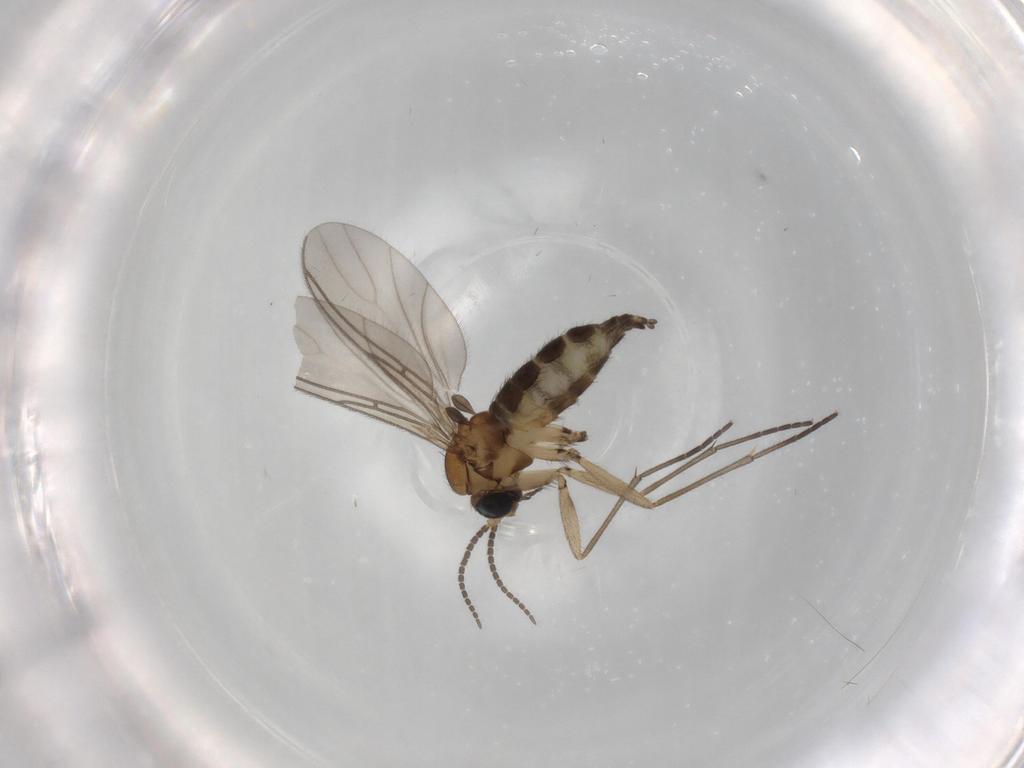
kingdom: Animalia
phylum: Arthropoda
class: Insecta
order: Diptera
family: Sciaridae
